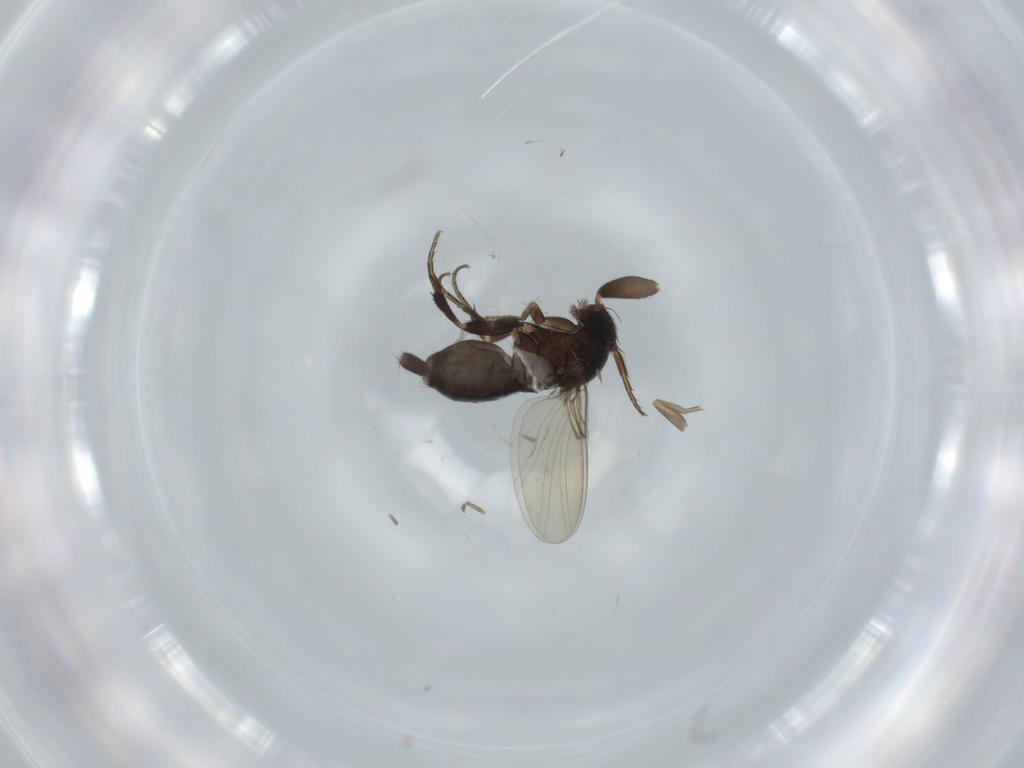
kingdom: Animalia
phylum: Arthropoda
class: Insecta
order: Diptera
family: Phoridae
